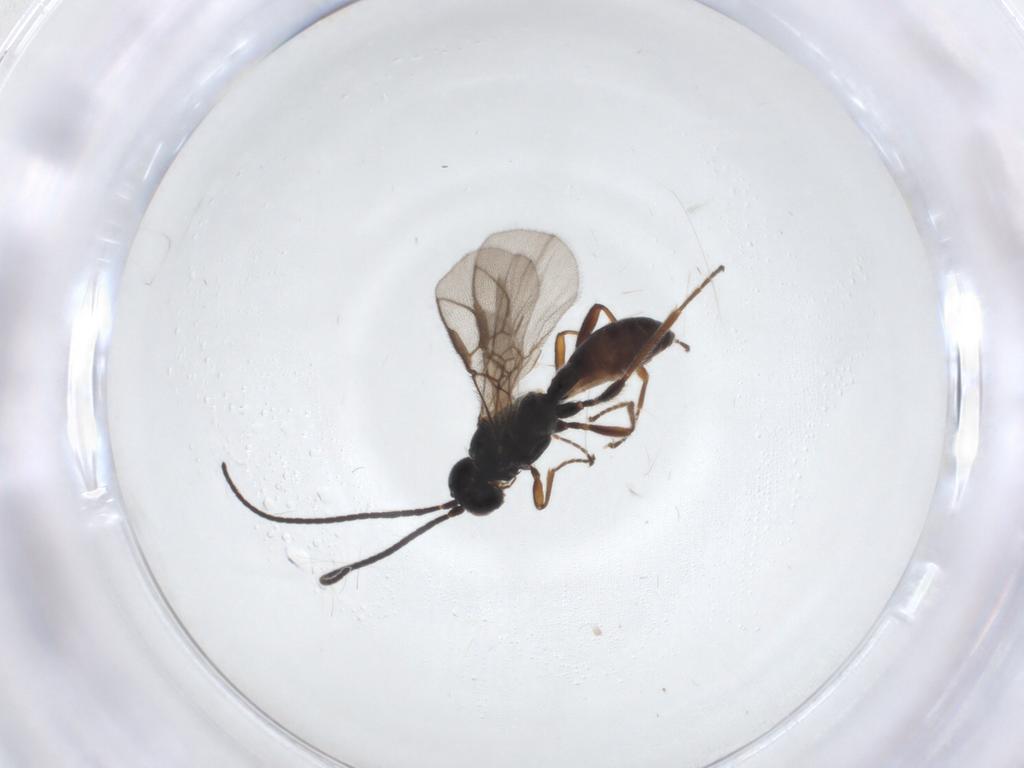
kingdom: Animalia
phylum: Arthropoda
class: Insecta
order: Hymenoptera
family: Braconidae
